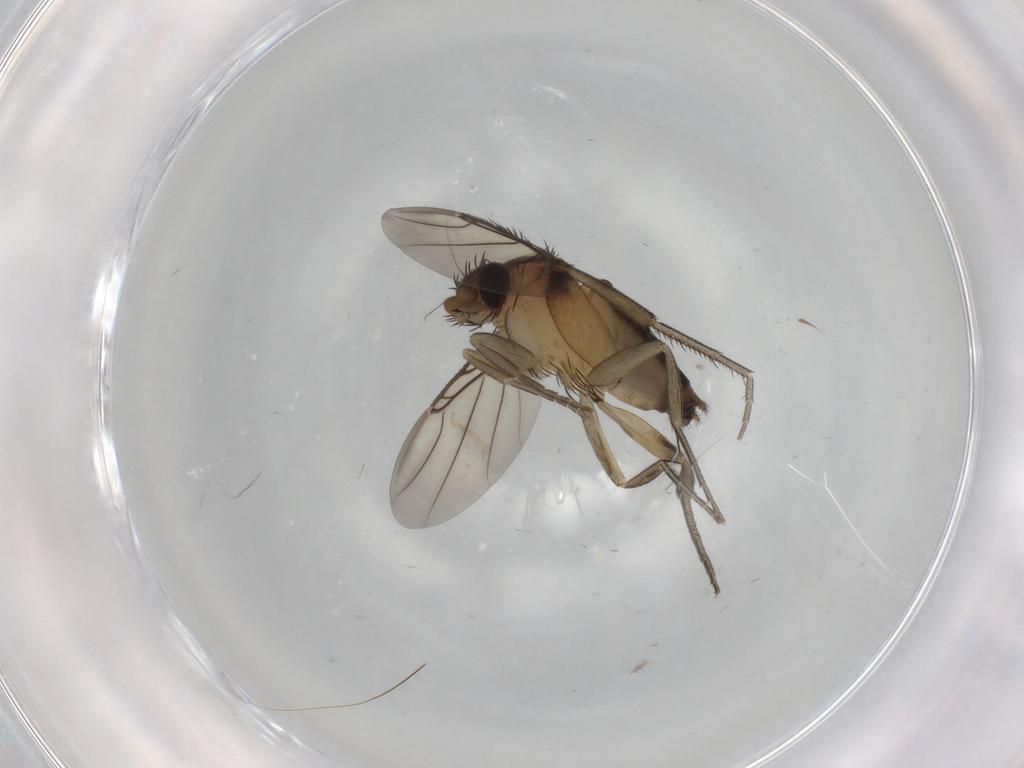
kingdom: Animalia
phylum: Arthropoda
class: Insecta
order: Diptera
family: Phoridae
